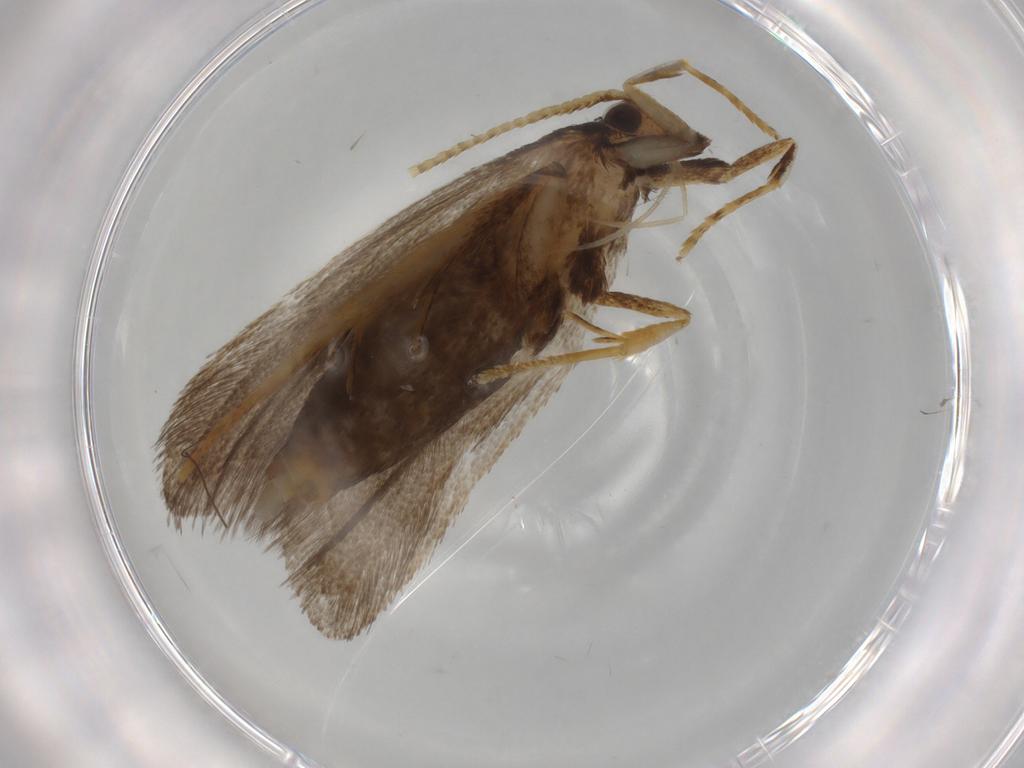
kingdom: Animalia
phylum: Arthropoda
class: Insecta
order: Lepidoptera
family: Lecithoceridae
